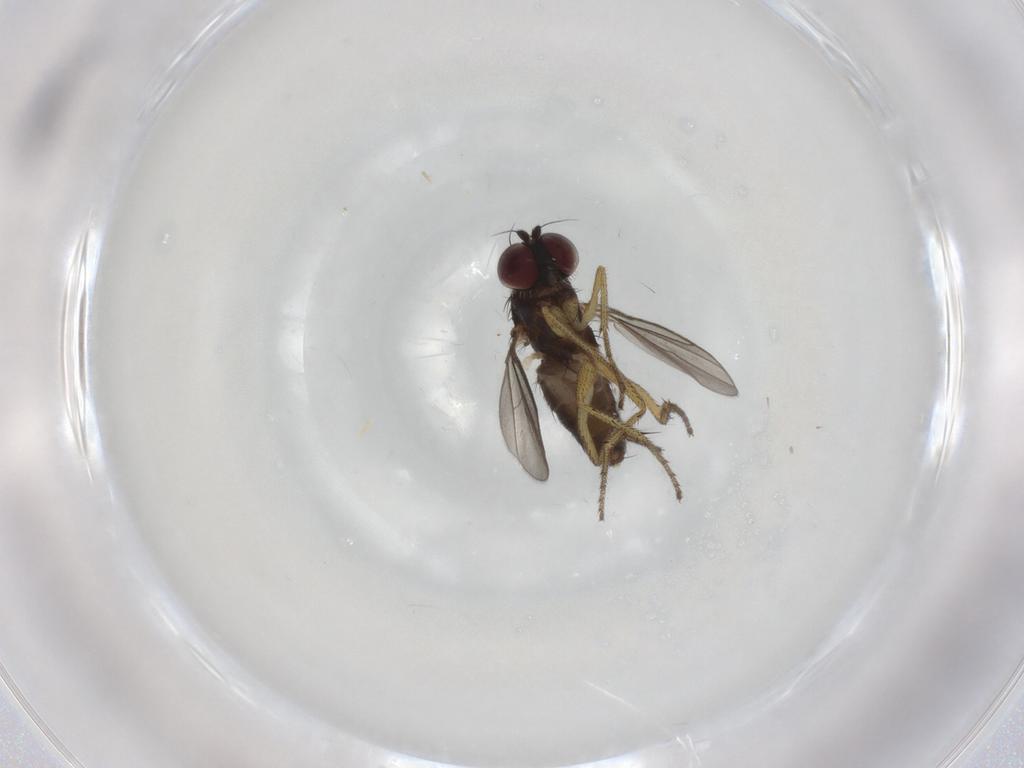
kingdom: Animalia
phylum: Arthropoda
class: Insecta
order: Diptera
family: Dolichopodidae
